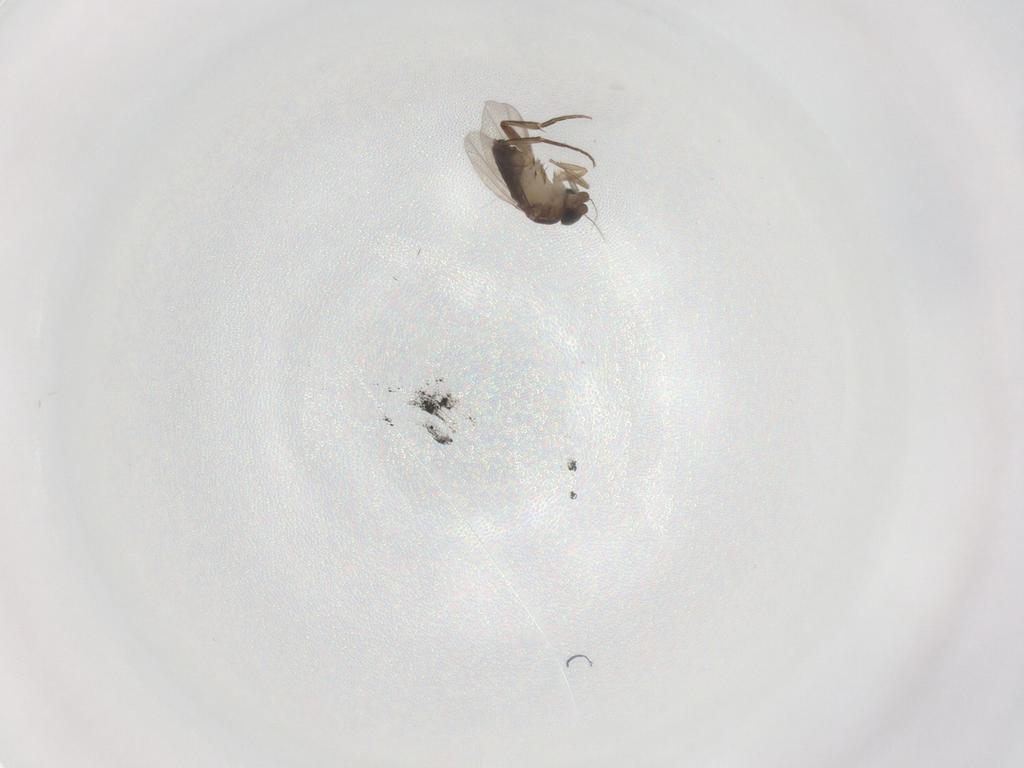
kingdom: Animalia
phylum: Arthropoda
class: Insecta
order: Diptera
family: Phoridae
